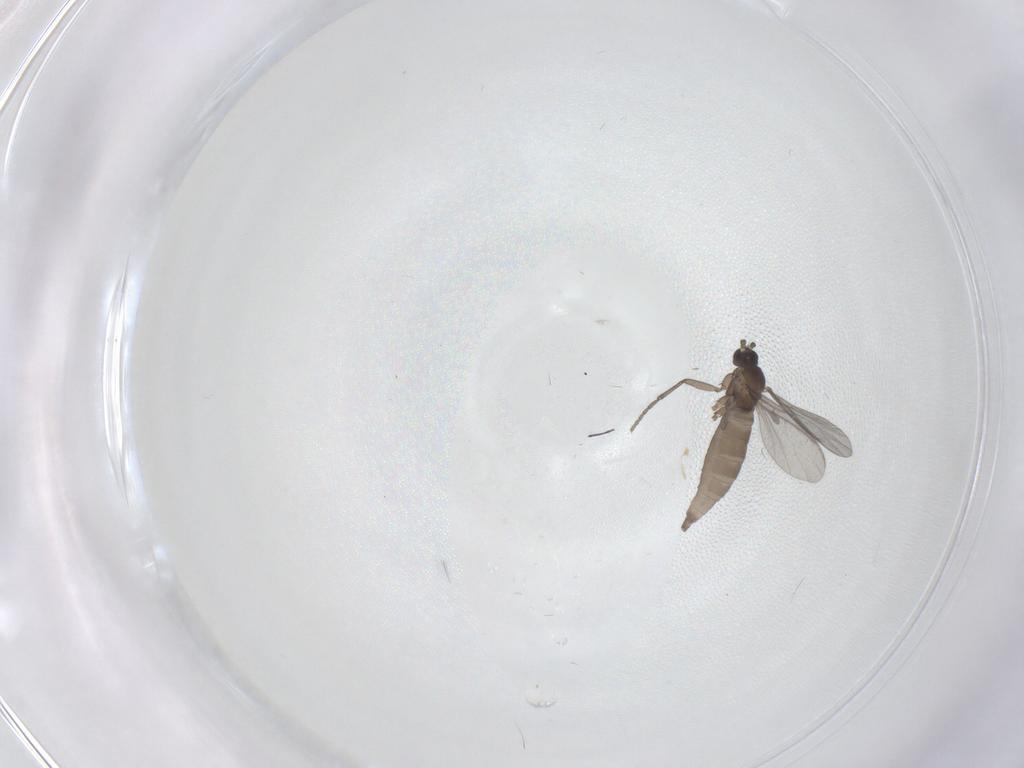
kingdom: Animalia
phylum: Arthropoda
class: Insecta
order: Diptera
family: Sciaridae
